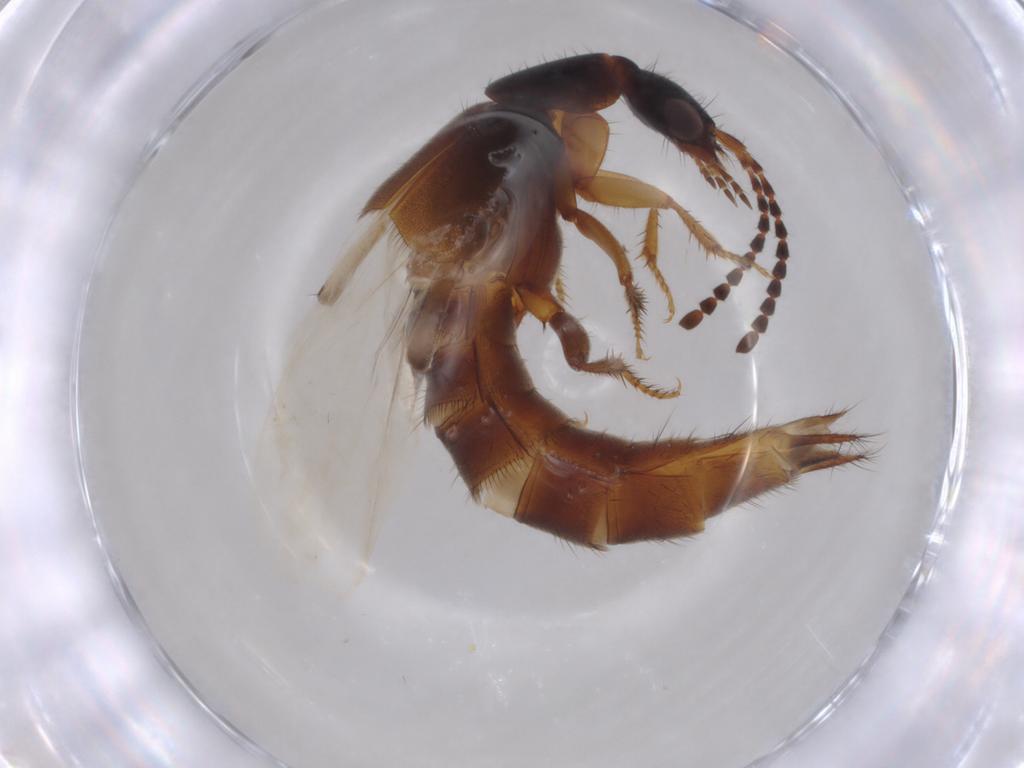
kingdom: Animalia
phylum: Arthropoda
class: Insecta
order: Coleoptera
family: Staphylinidae
